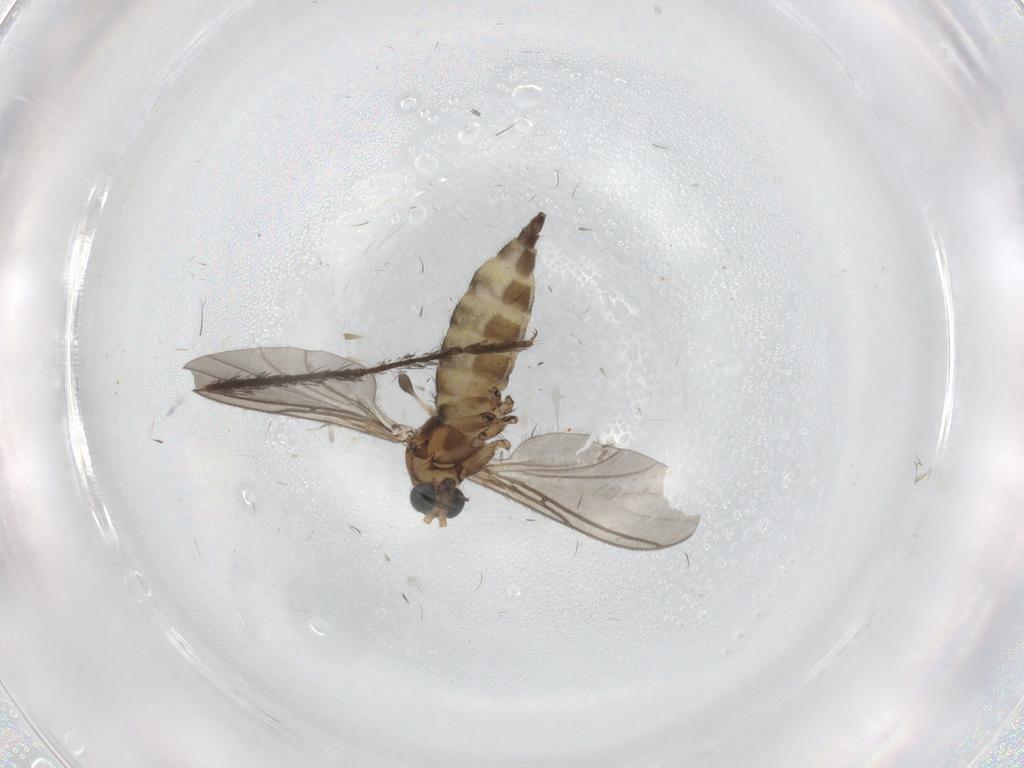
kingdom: Animalia
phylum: Arthropoda
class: Insecta
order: Diptera
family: Sciaridae
